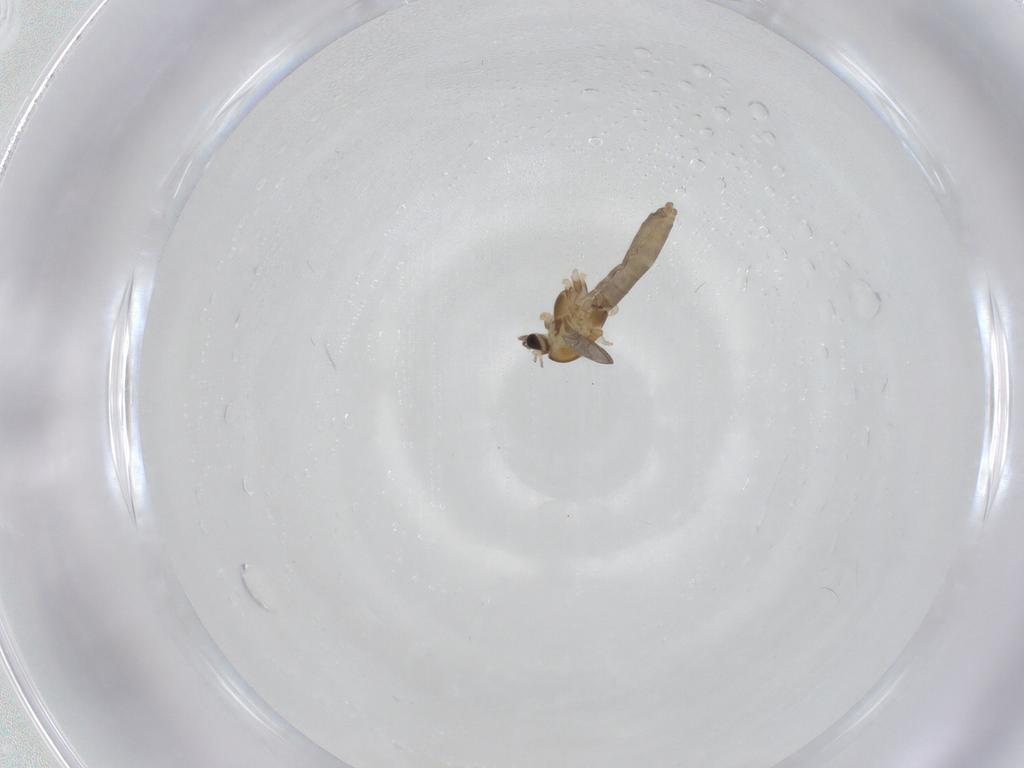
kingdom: Animalia
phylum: Arthropoda
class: Insecta
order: Diptera
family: Chironomidae
